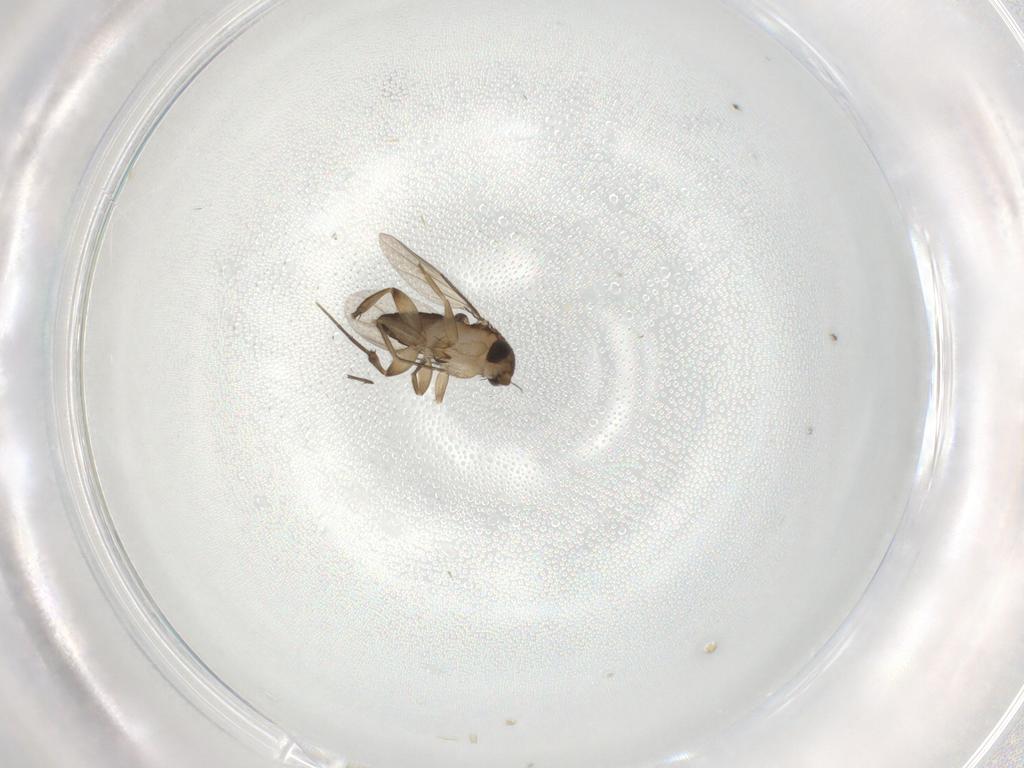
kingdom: Animalia
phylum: Arthropoda
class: Insecta
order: Diptera
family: Phoridae
